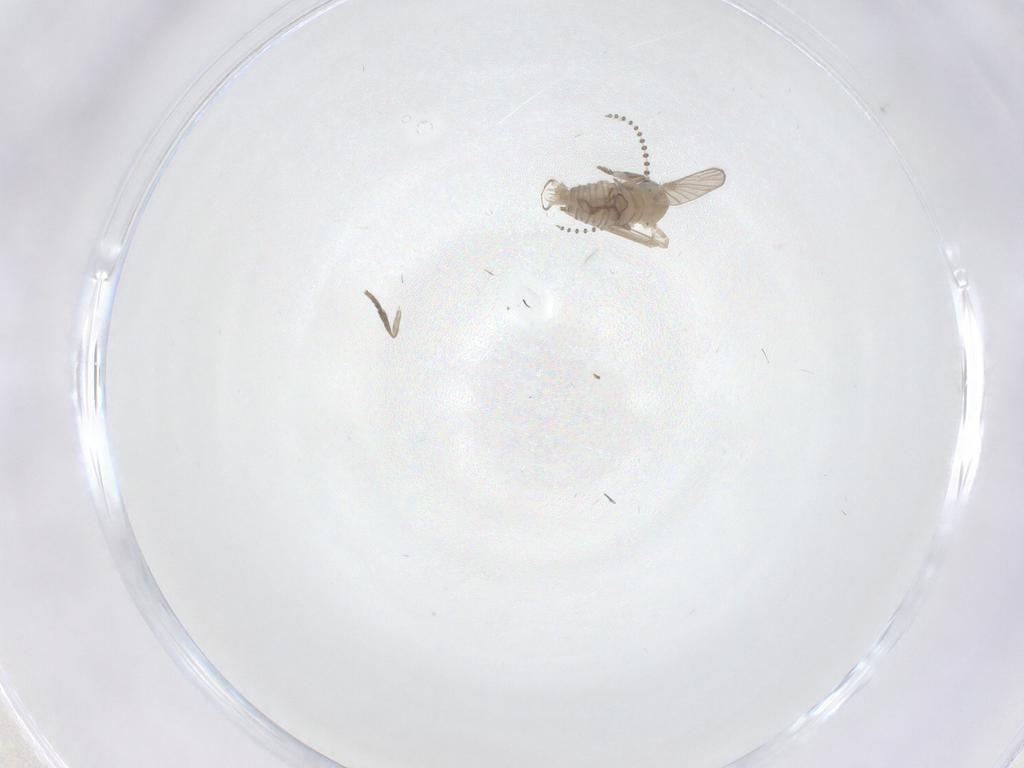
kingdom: Animalia
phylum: Arthropoda
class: Insecta
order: Diptera
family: Psychodidae
